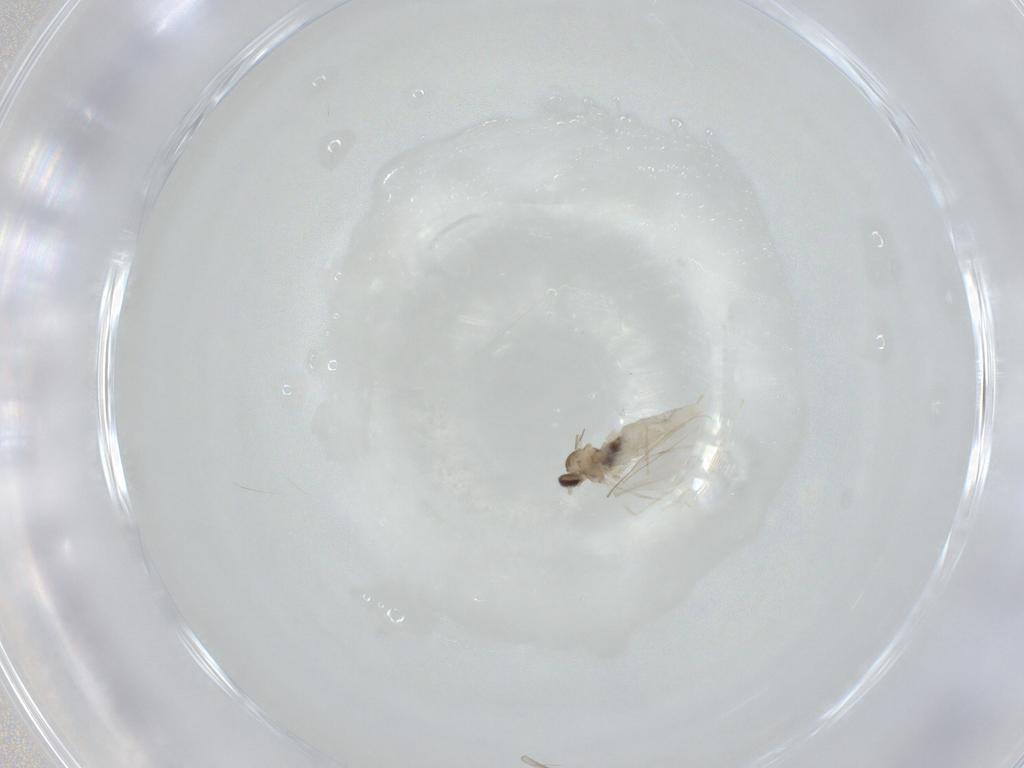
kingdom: Animalia
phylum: Arthropoda
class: Insecta
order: Diptera
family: Cecidomyiidae
